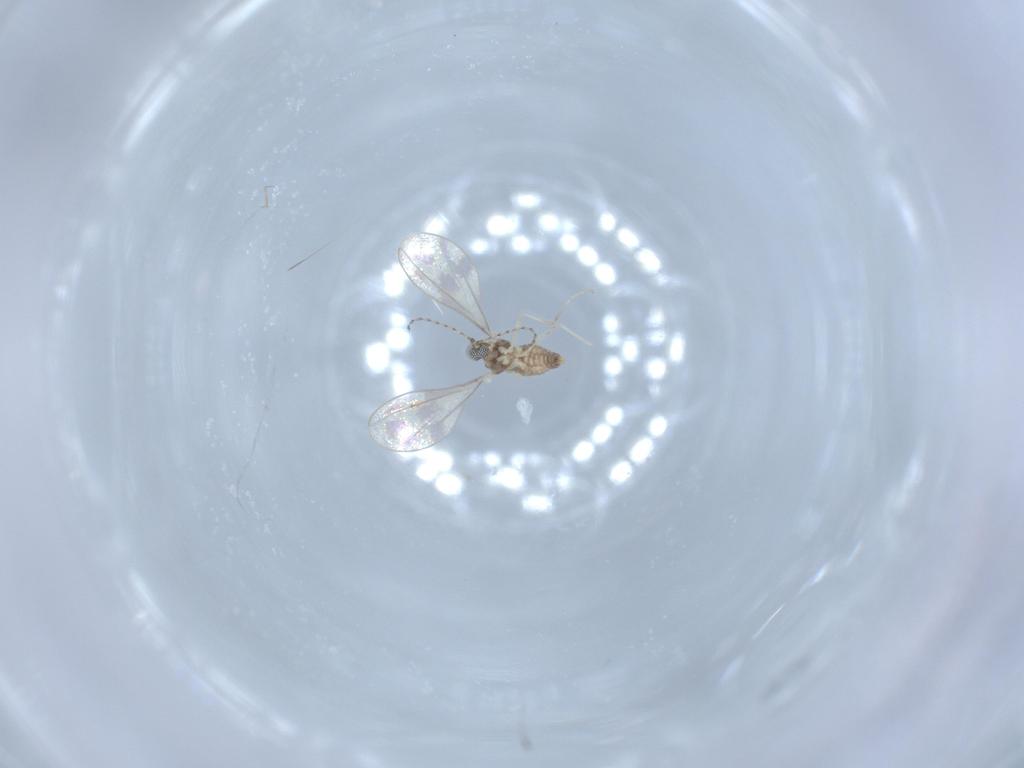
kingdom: Animalia
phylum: Arthropoda
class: Insecta
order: Diptera
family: Cecidomyiidae
